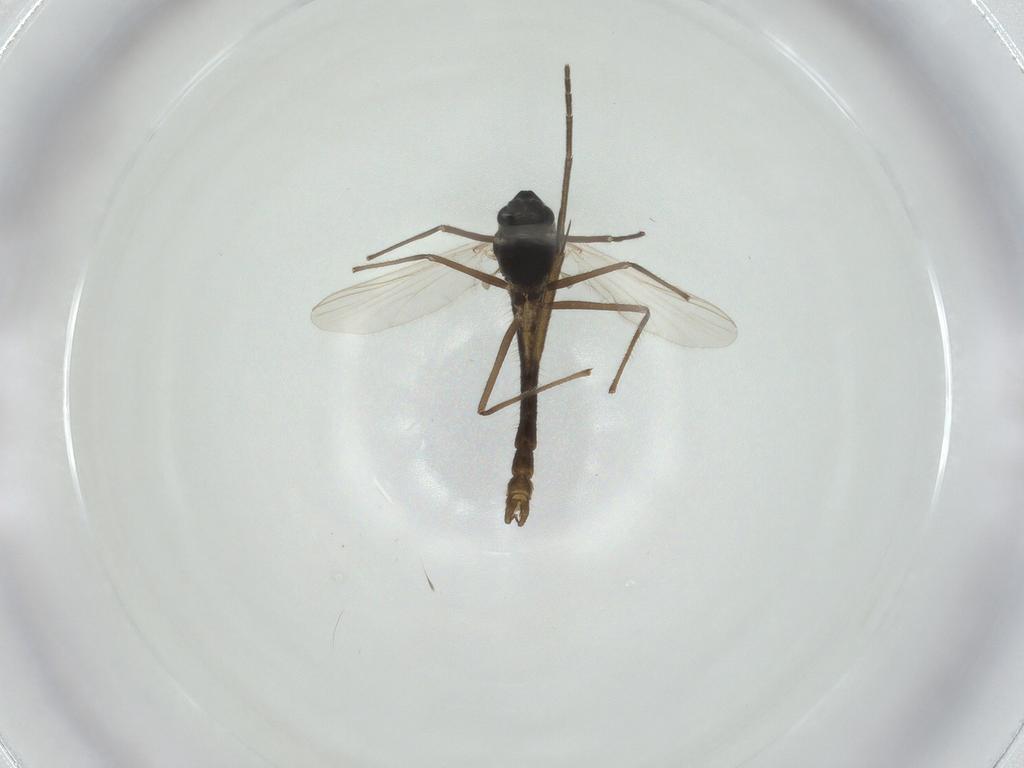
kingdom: Animalia
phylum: Arthropoda
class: Insecta
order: Diptera
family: Chironomidae
